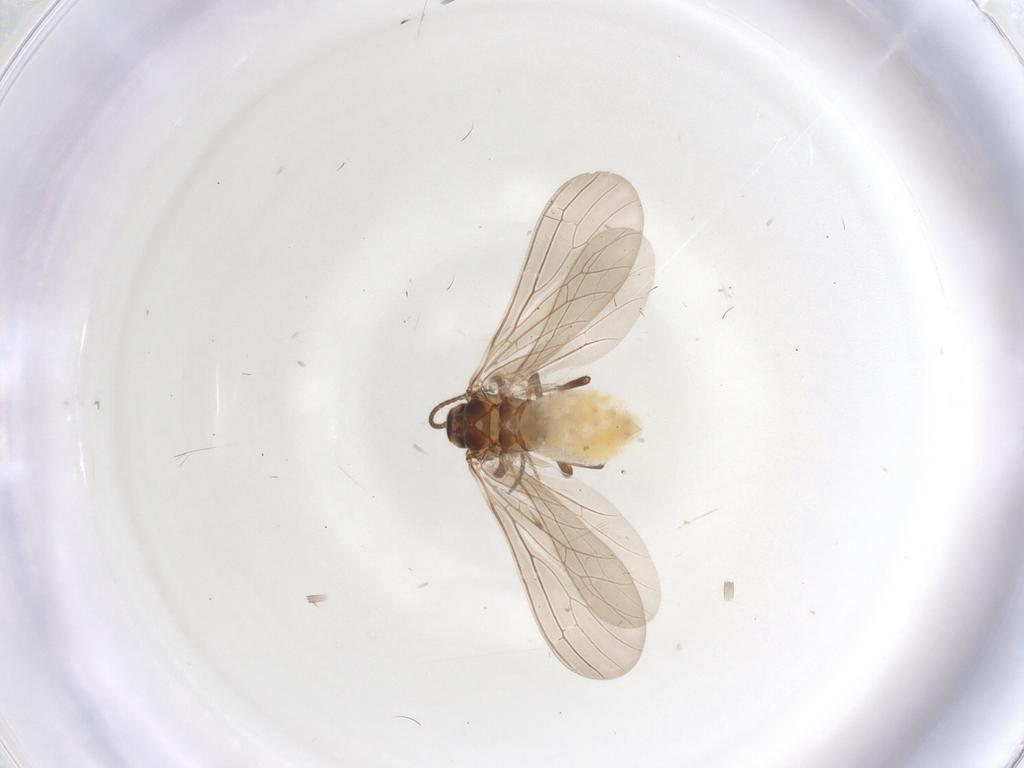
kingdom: Animalia
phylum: Arthropoda
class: Insecta
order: Neuroptera
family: Coniopterygidae
